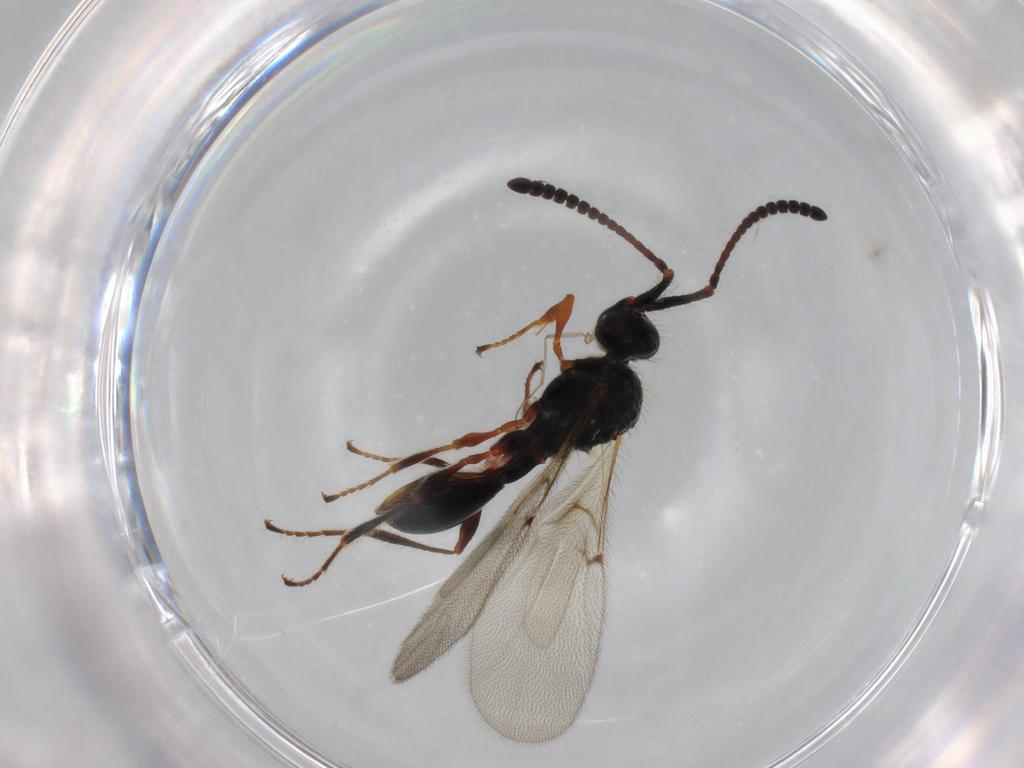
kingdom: Animalia
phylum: Arthropoda
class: Insecta
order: Hymenoptera
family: Diapriidae
